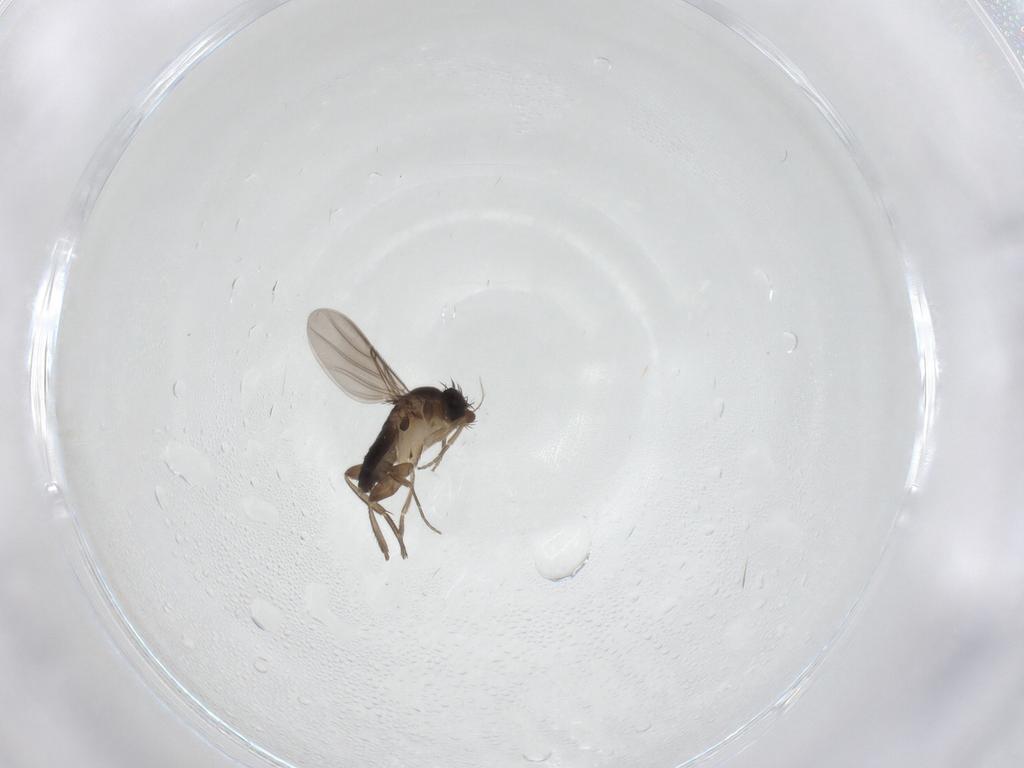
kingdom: Animalia
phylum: Arthropoda
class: Insecta
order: Diptera
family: Phoridae
